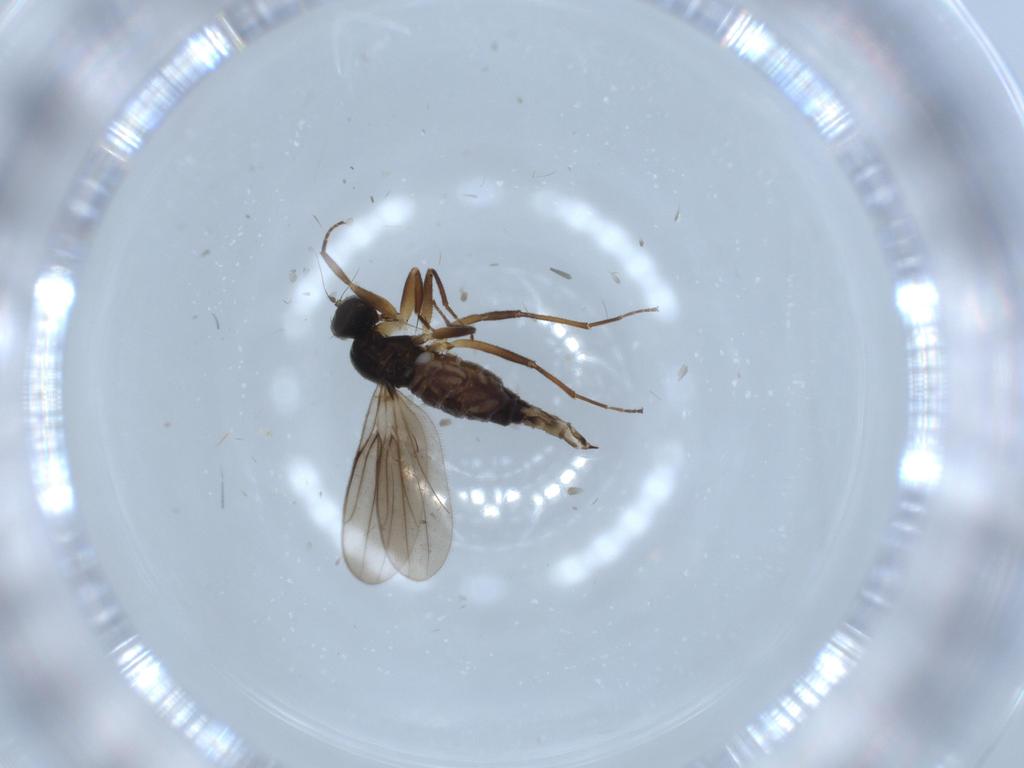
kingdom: Animalia
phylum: Arthropoda
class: Insecta
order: Diptera
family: Hybotidae
